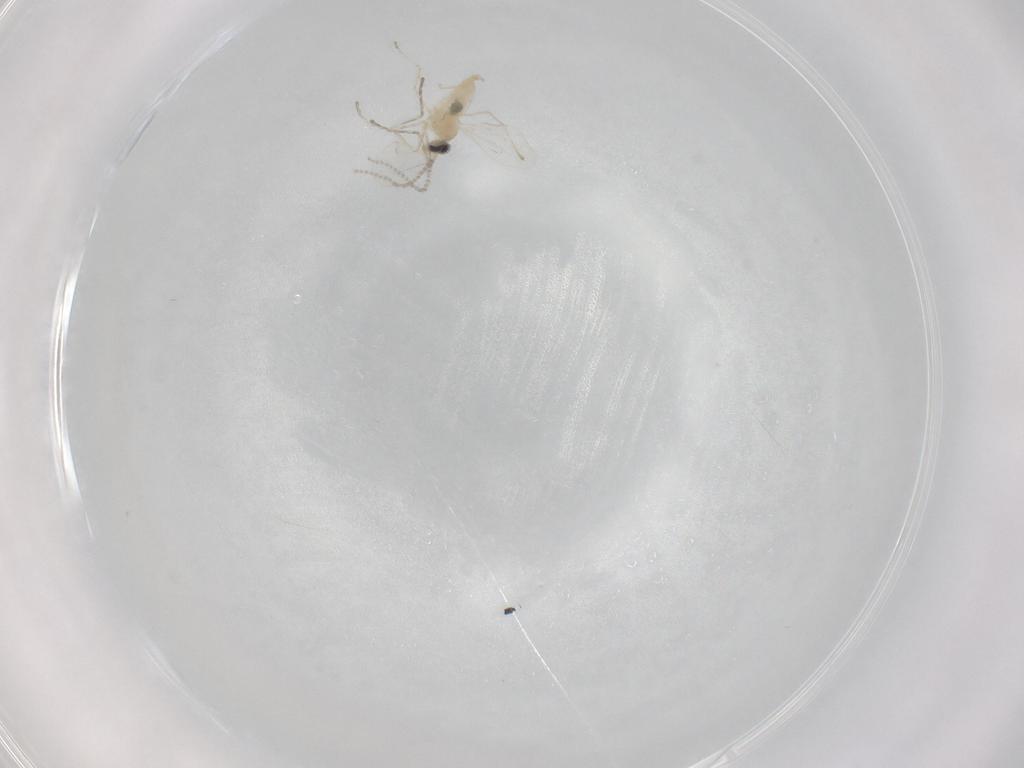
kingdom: Animalia
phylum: Arthropoda
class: Insecta
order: Diptera
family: Cecidomyiidae
